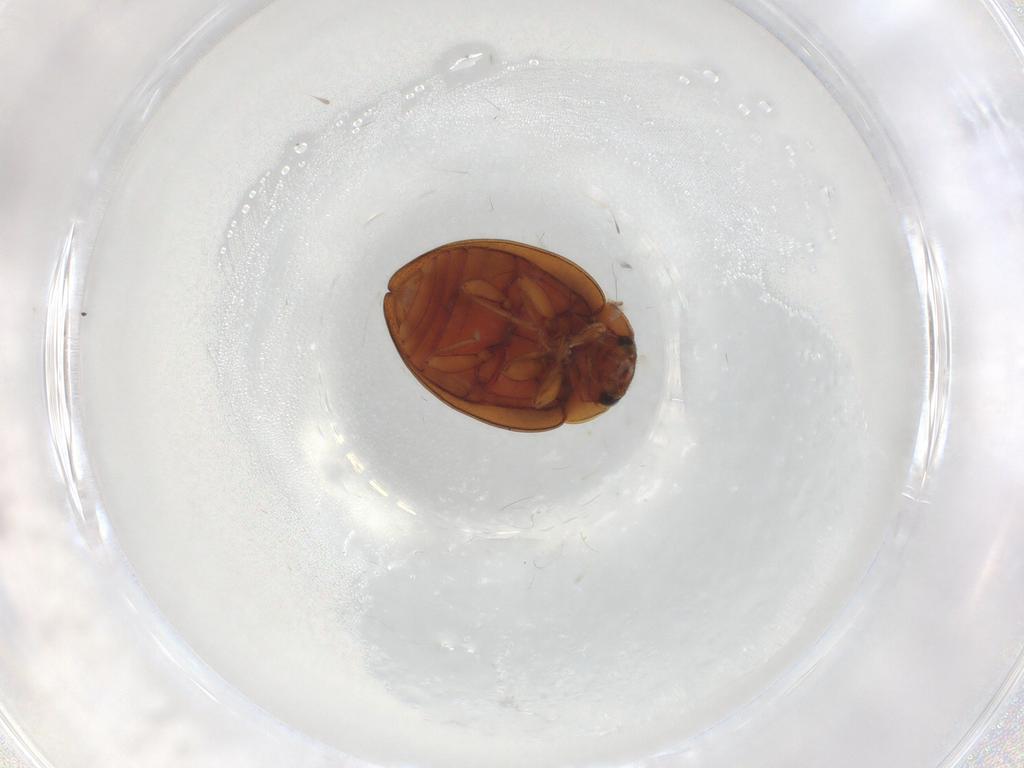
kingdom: Animalia
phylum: Arthropoda
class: Insecta
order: Coleoptera
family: Coccinellidae
